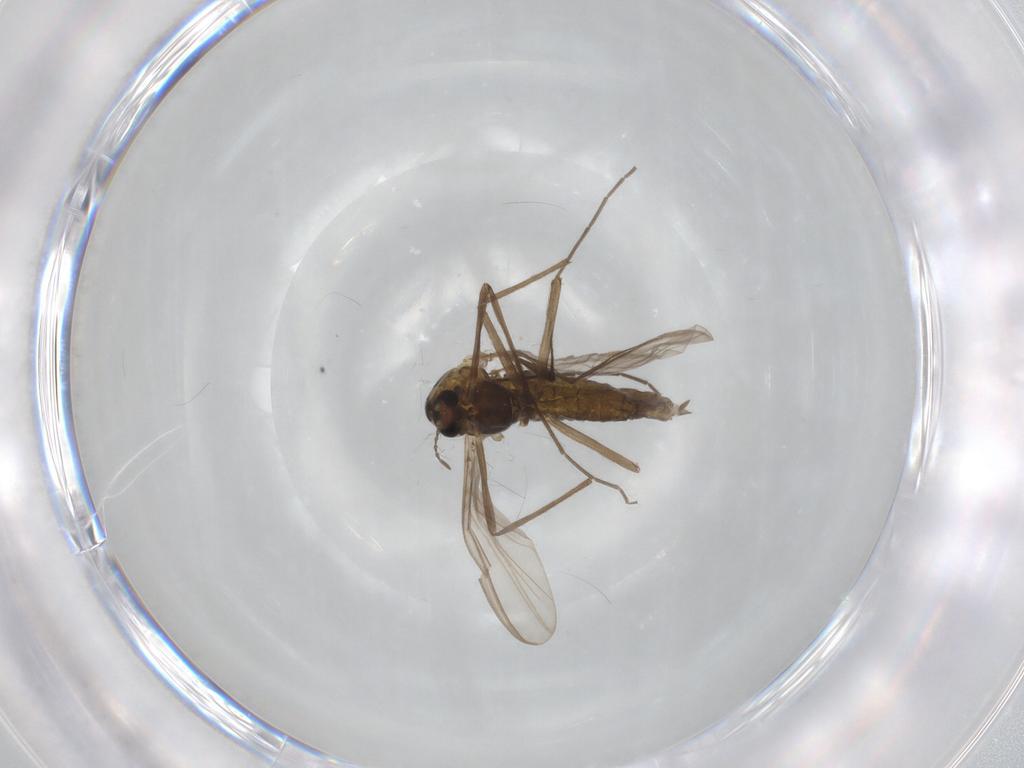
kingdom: Animalia
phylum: Arthropoda
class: Insecta
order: Diptera
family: Chironomidae
